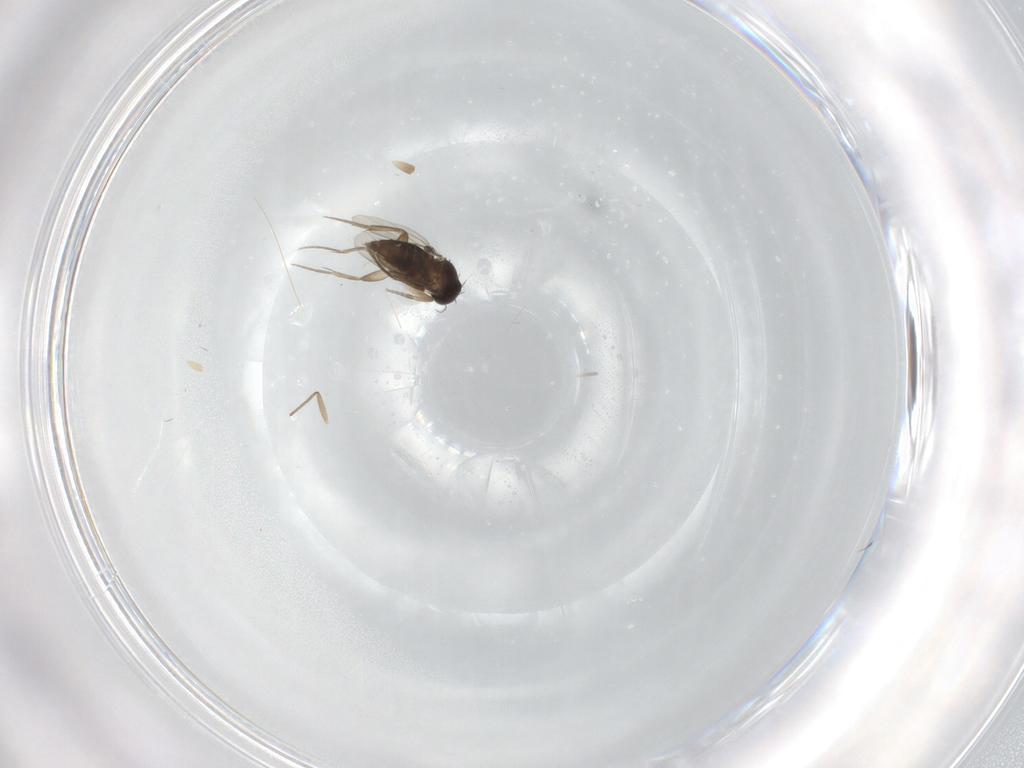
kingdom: Animalia
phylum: Arthropoda
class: Insecta
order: Diptera
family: Phoridae
